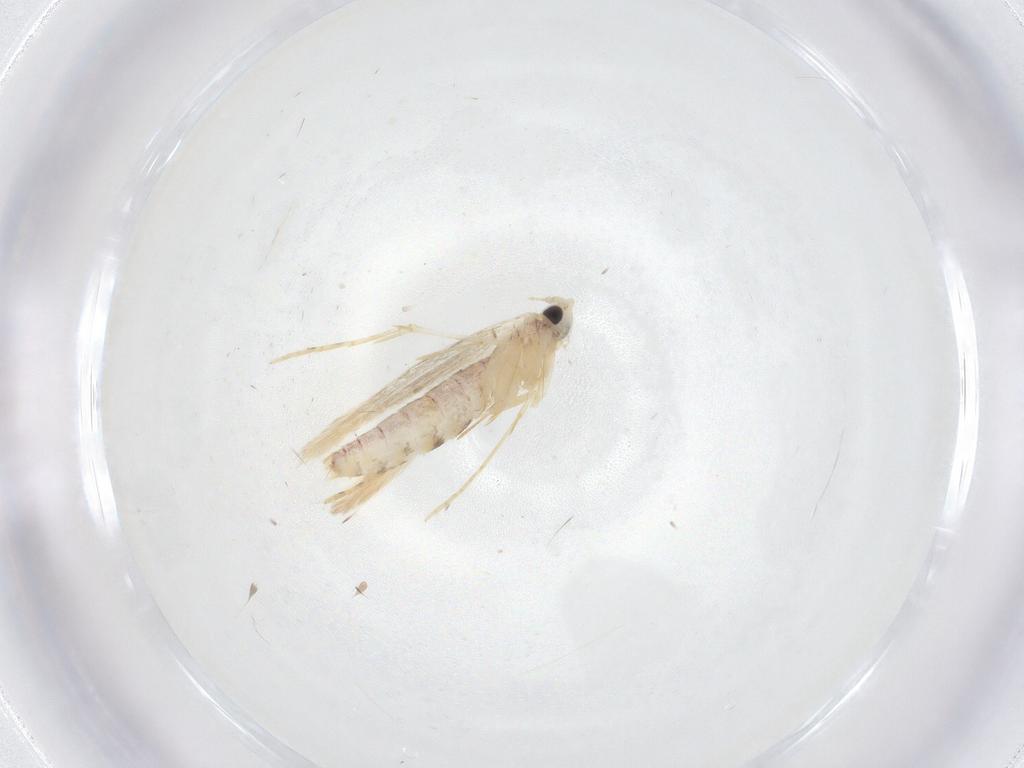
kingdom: Animalia
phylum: Arthropoda
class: Insecta
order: Lepidoptera
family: Tineidae
